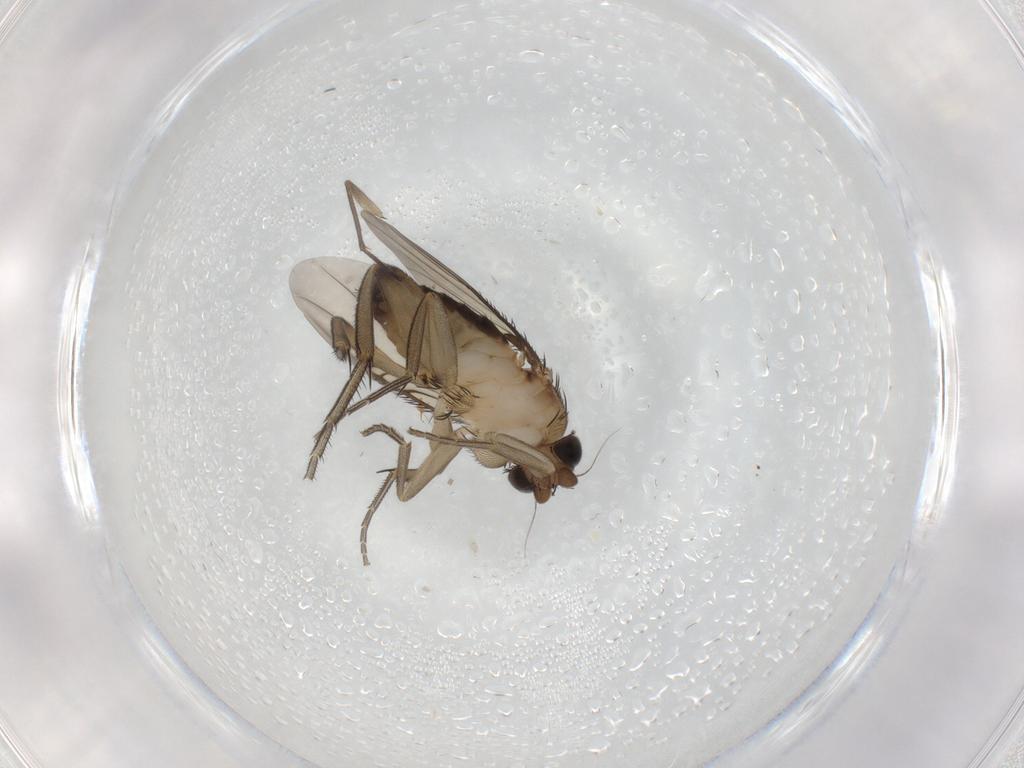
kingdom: Animalia
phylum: Arthropoda
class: Insecta
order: Diptera
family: Phoridae
